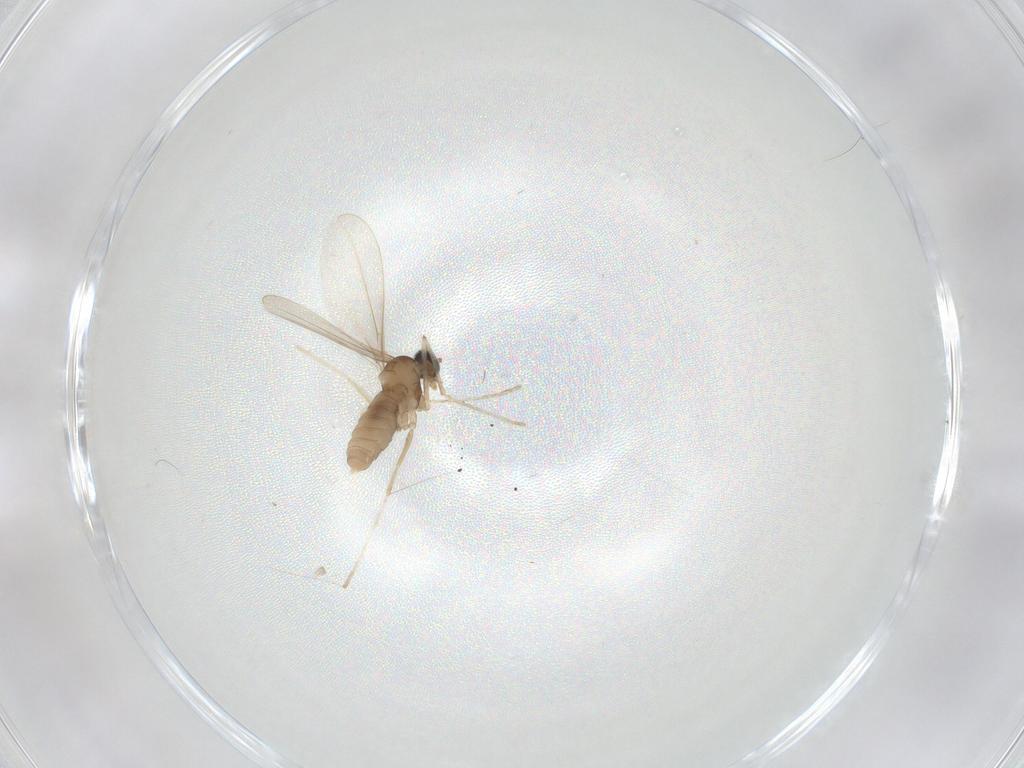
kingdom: Animalia
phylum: Arthropoda
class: Insecta
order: Diptera
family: Cecidomyiidae
